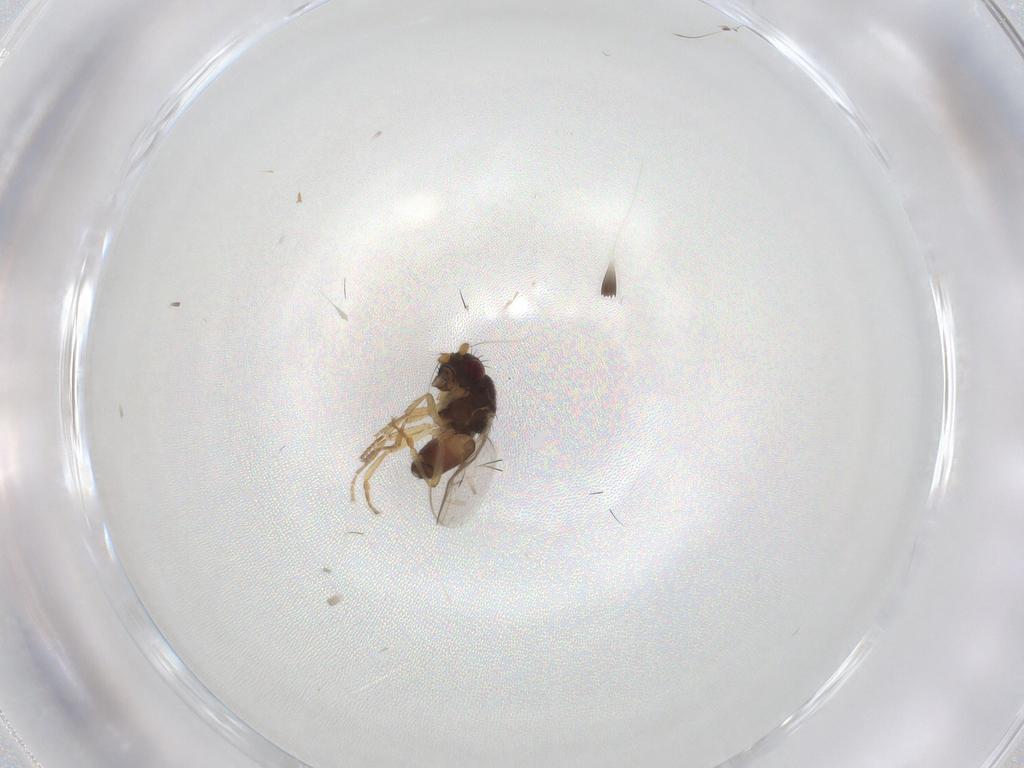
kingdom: Animalia
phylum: Arthropoda
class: Insecta
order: Diptera
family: Sphaeroceridae
